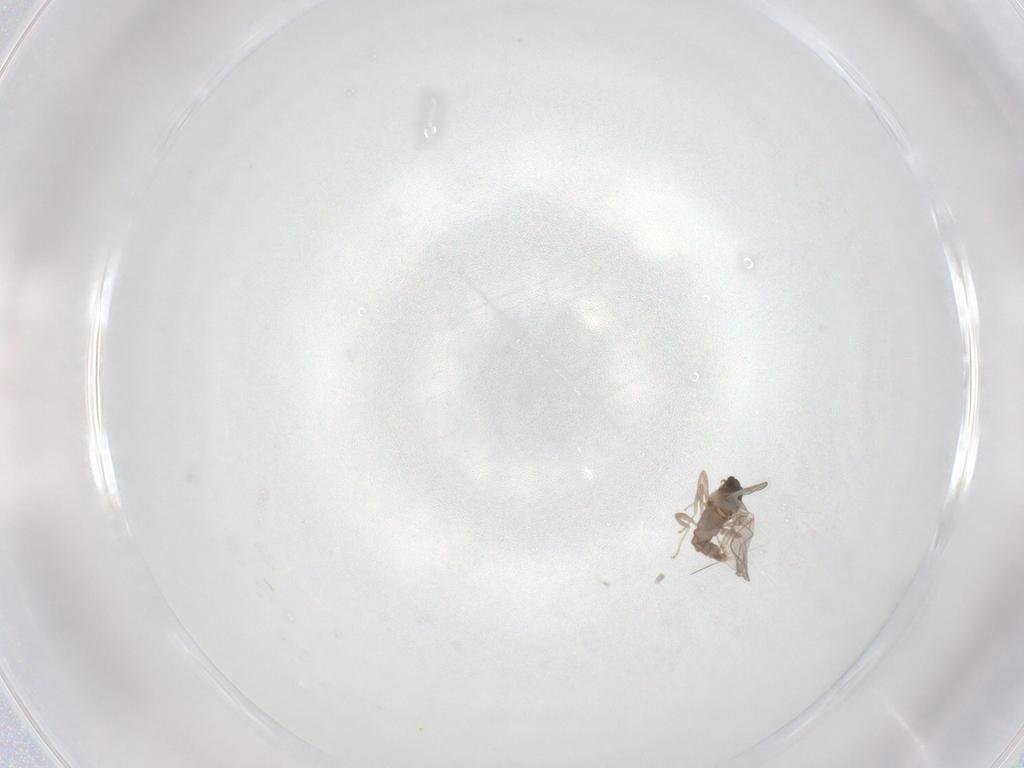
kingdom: Animalia
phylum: Arthropoda
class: Insecta
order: Diptera
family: Cecidomyiidae
